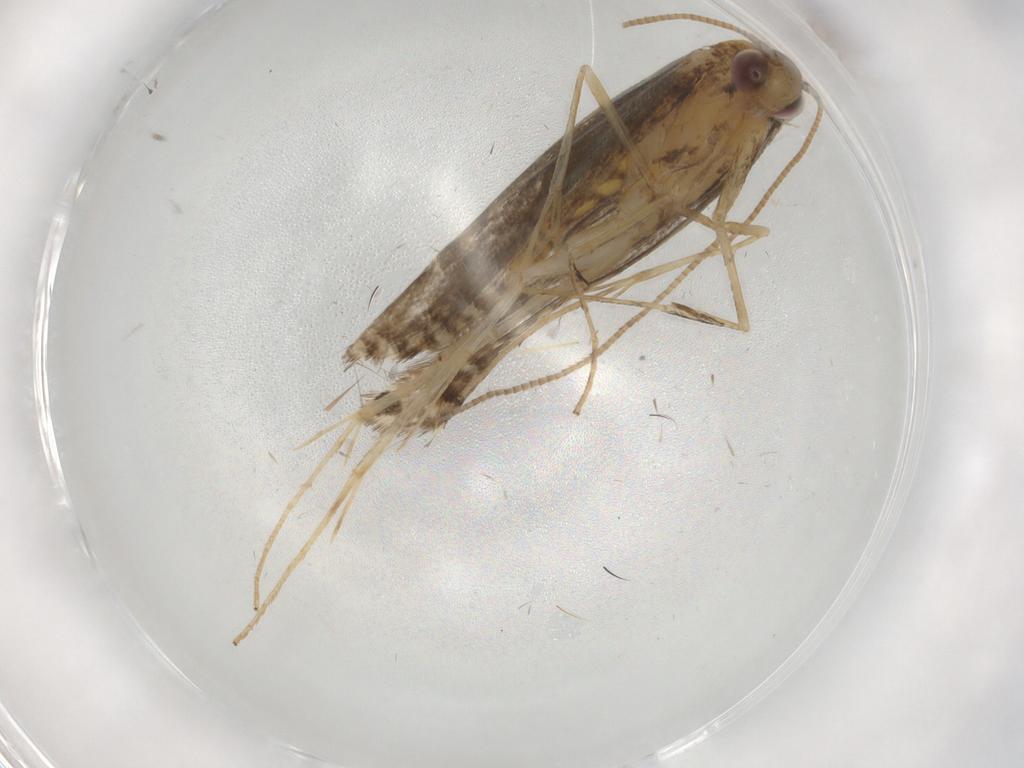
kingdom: Animalia
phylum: Arthropoda
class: Insecta
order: Lepidoptera
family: Gracillariidae
